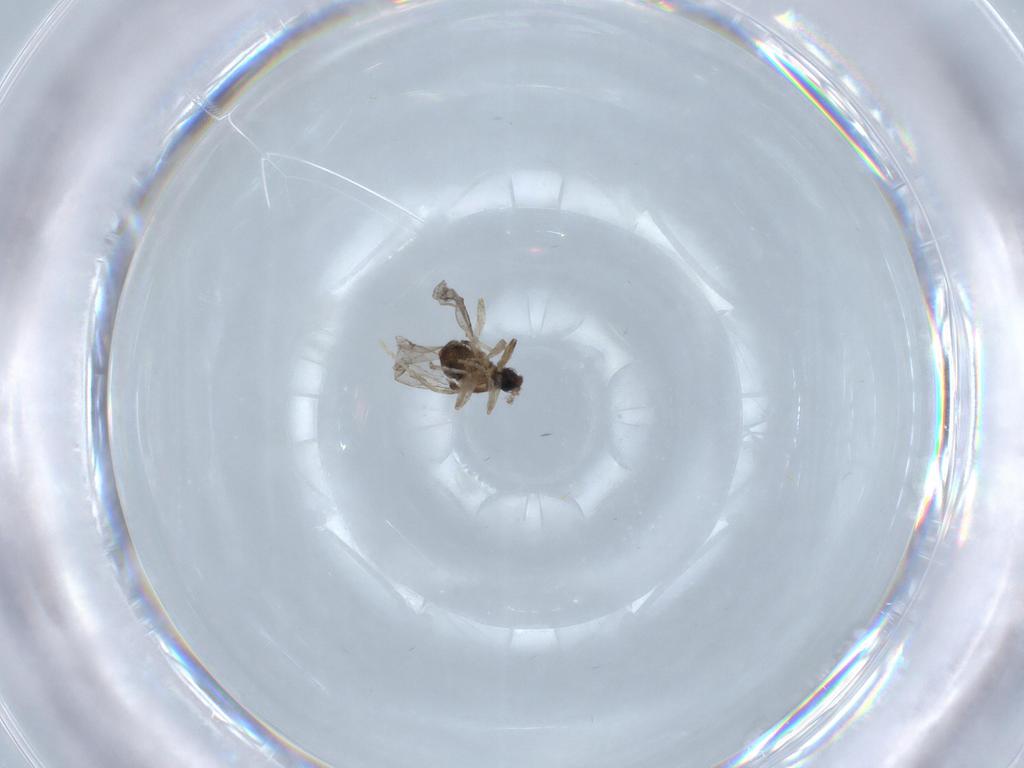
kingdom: Animalia
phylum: Arthropoda
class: Insecta
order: Diptera
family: Cecidomyiidae
